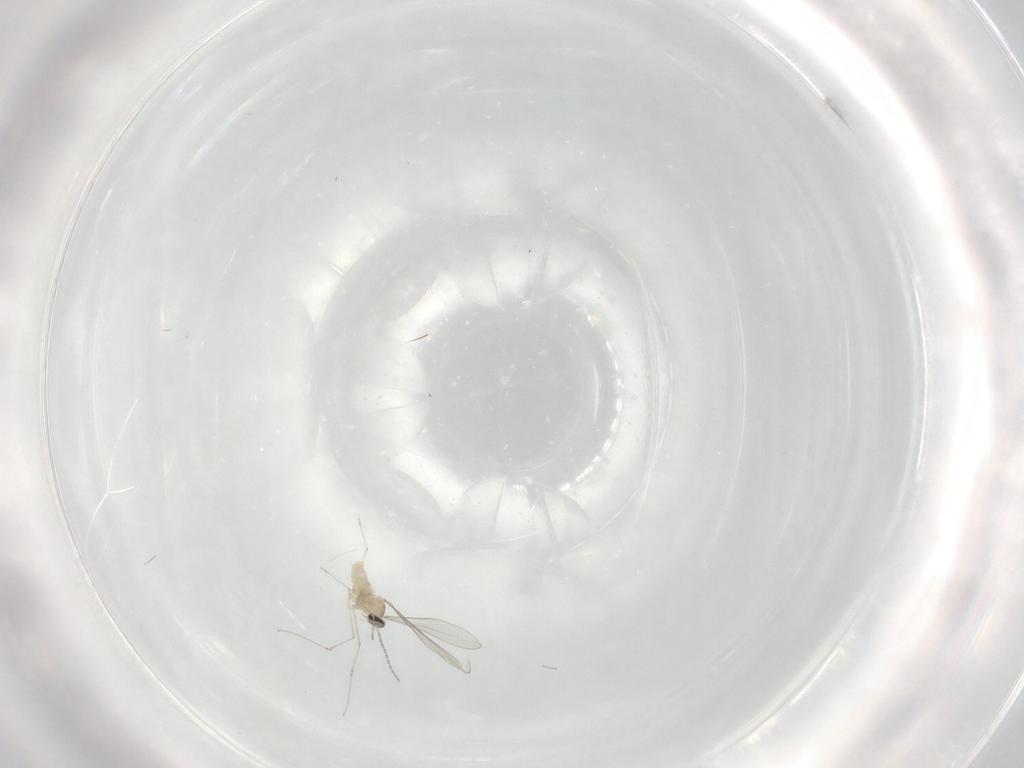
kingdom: Animalia
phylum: Arthropoda
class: Insecta
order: Diptera
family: Cecidomyiidae
